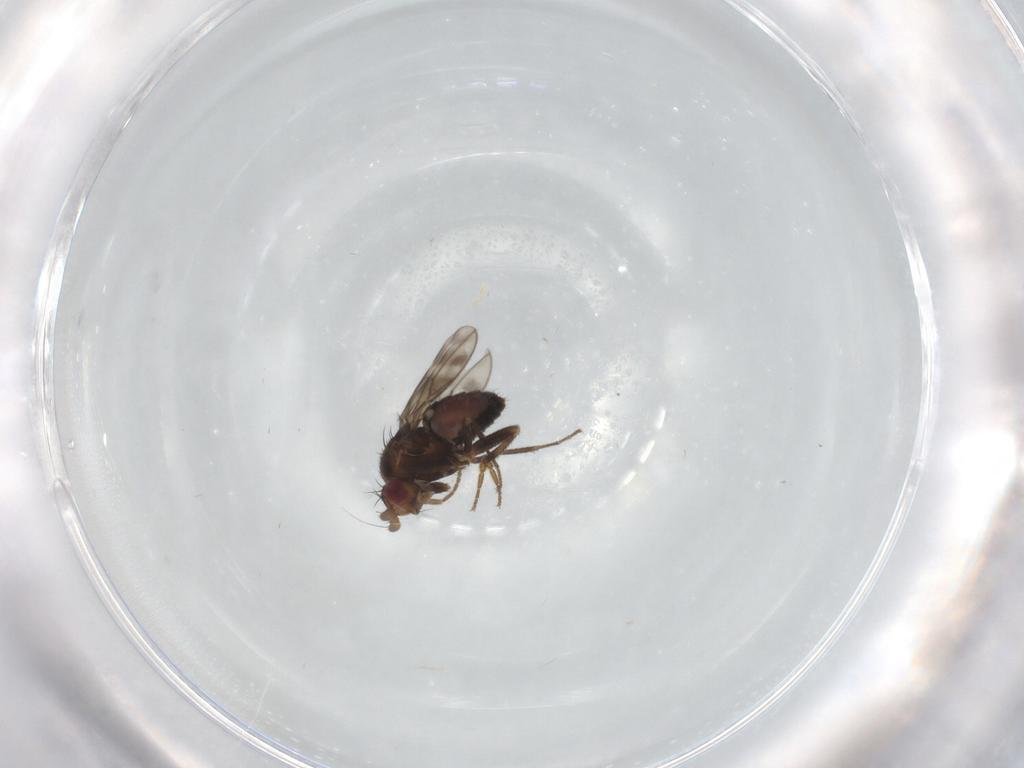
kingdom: Animalia
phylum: Arthropoda
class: Insecta
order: Diptera
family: Sphaeroceridae
